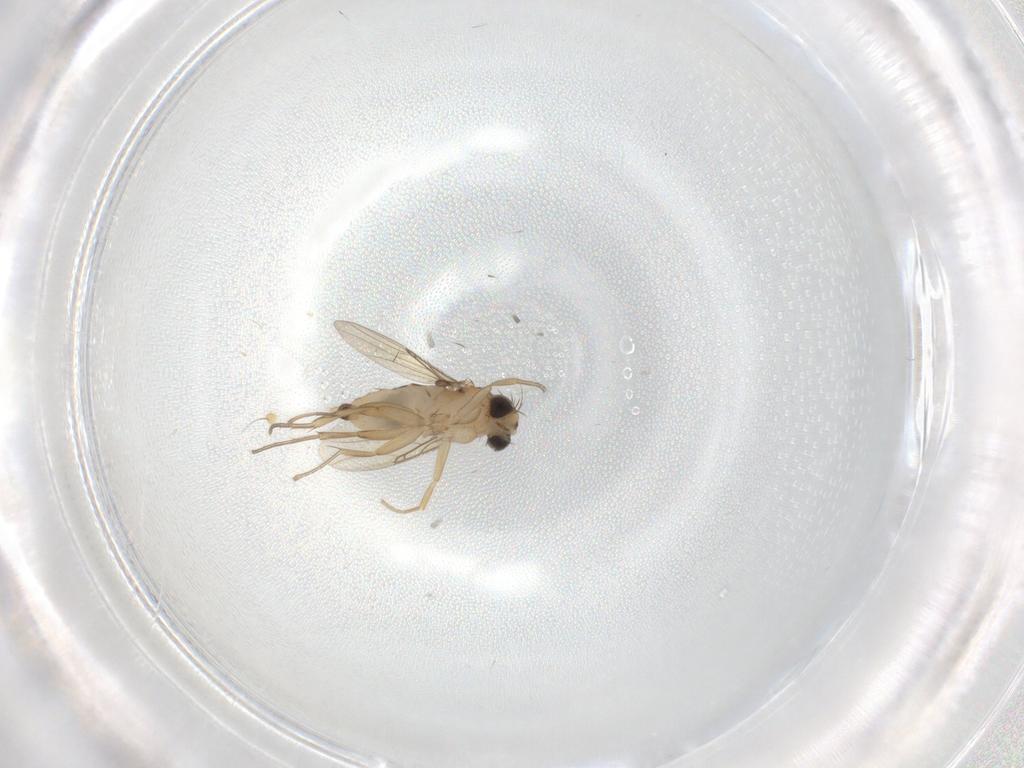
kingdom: Animalia
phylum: Arthropoda
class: Insecta
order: Diptera
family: Phoridae
